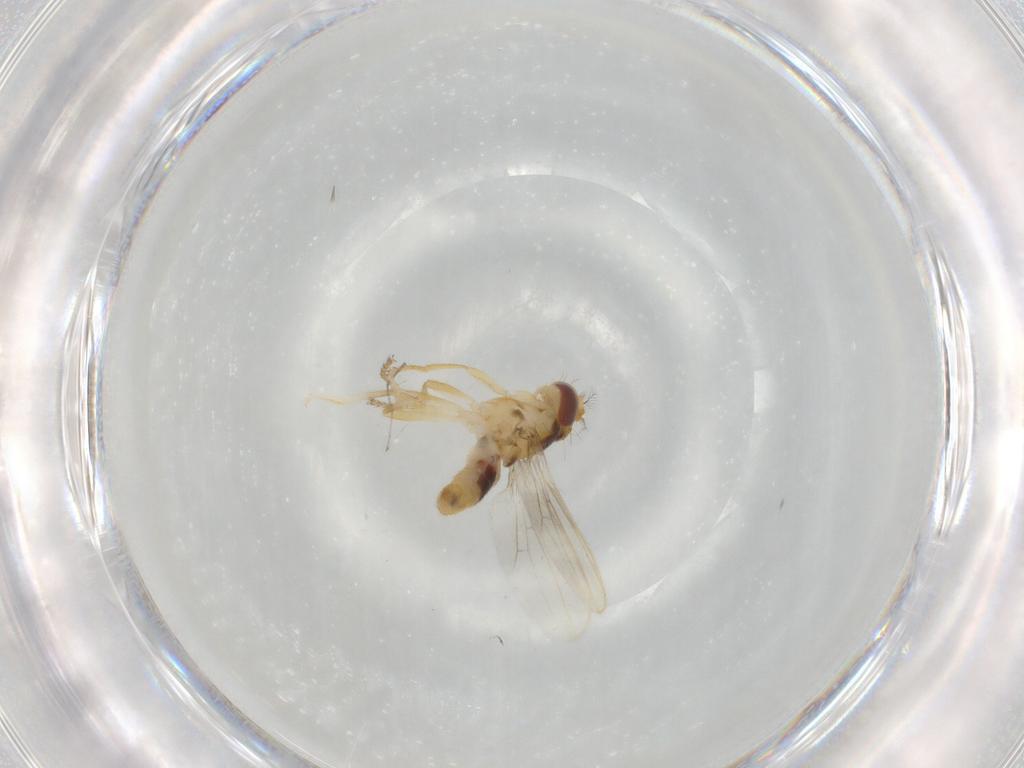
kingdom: Animalia
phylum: Arthropoda
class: Insecta
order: Diptera
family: Periscelididae
